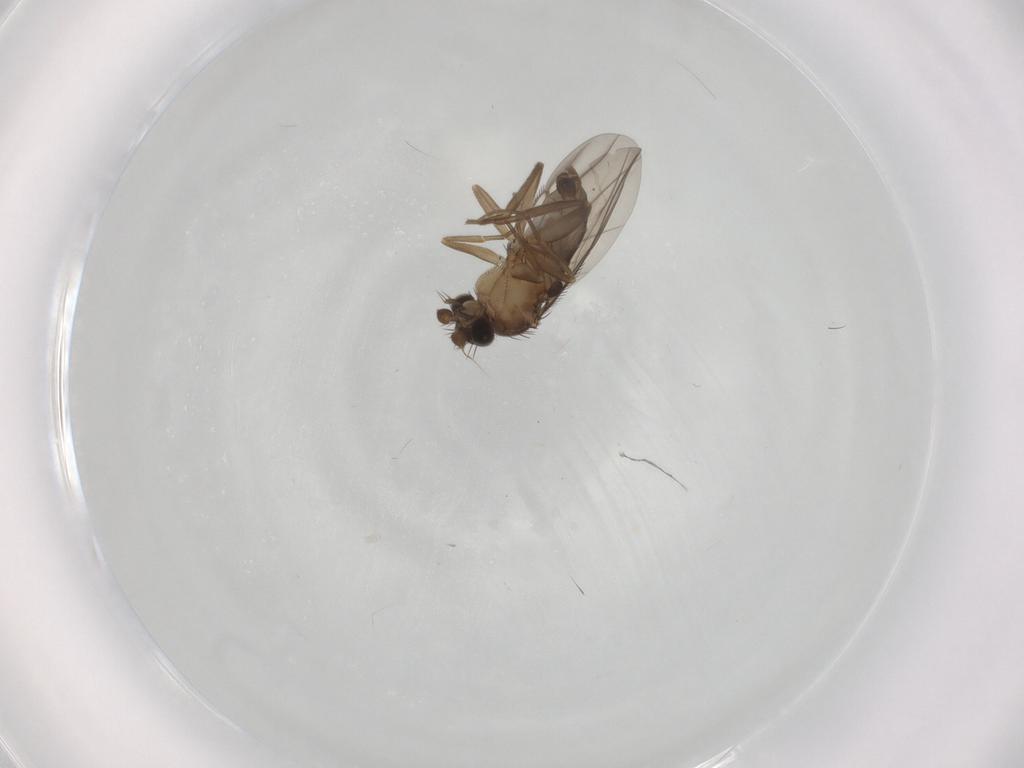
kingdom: Animalia
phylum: Arthropoda
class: Insecta
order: Diptera
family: Phoridae
